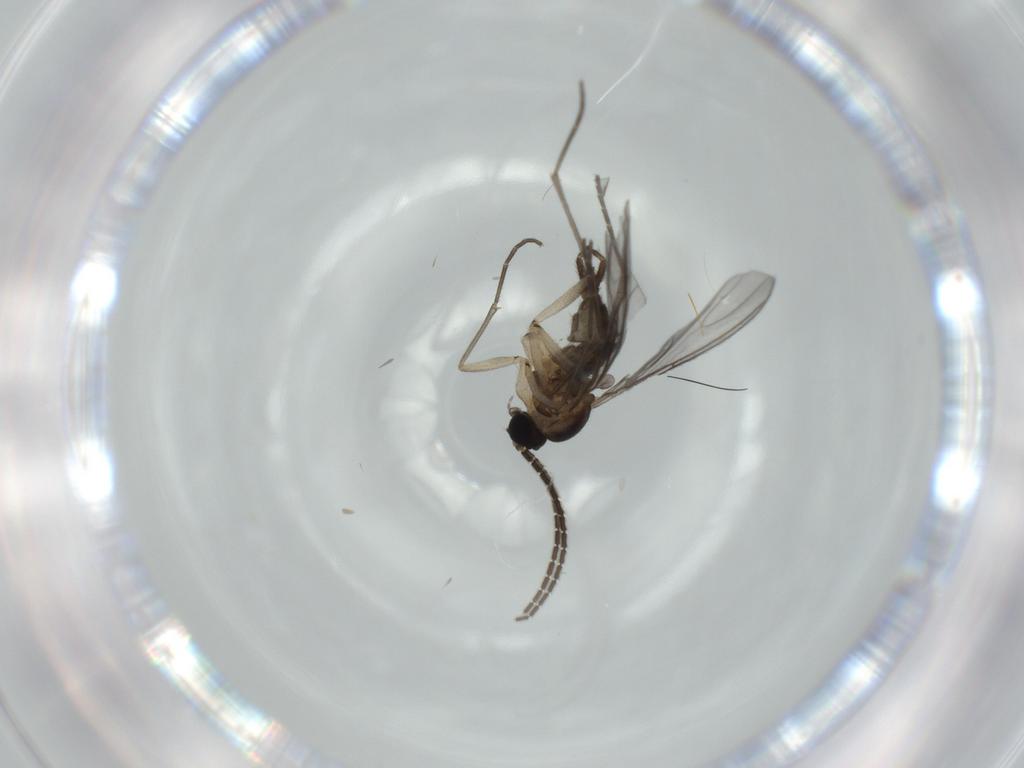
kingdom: Animalia
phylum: Arthropoda
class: Insecta
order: Diptera
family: Sciaridae
